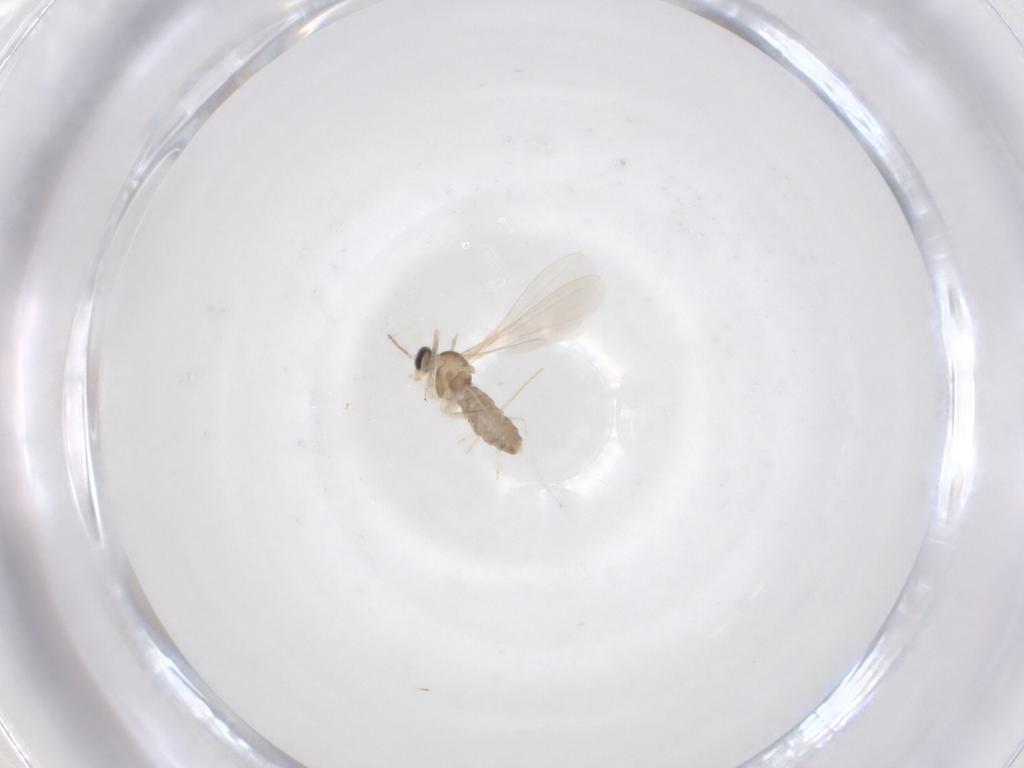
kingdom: Animalia
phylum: Arthropoda
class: Insecta
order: Diptera
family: Cecidomyiidae
